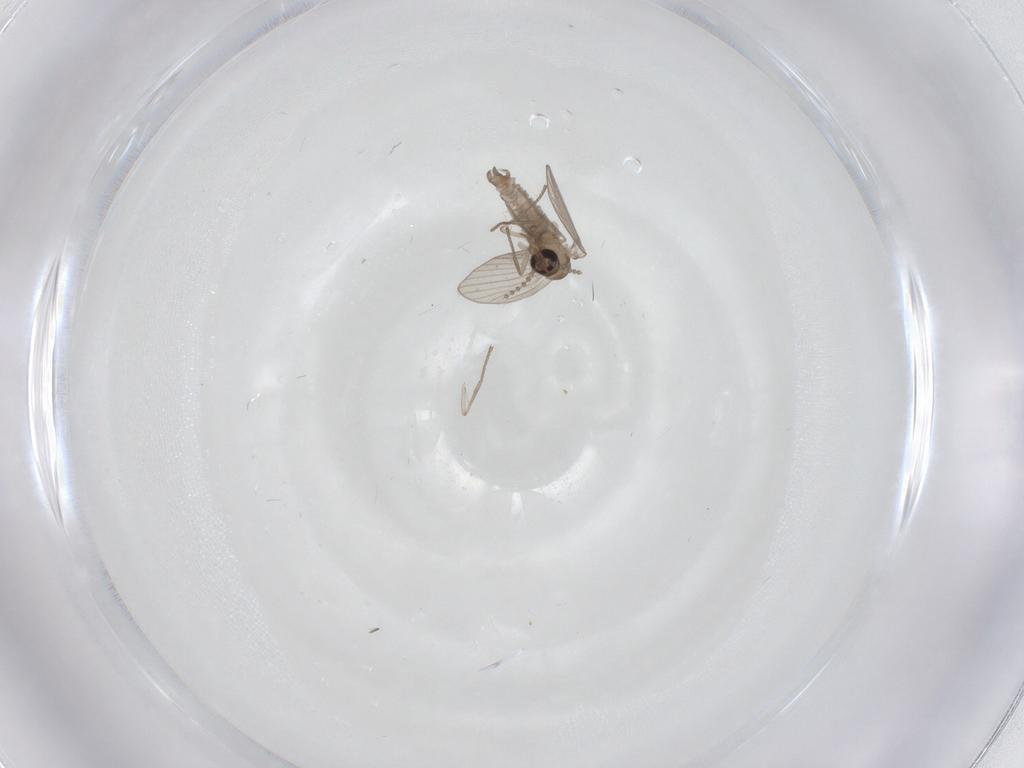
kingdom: Animalia
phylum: Arthropoda
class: Insecta
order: Diptera
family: Psychodidae
